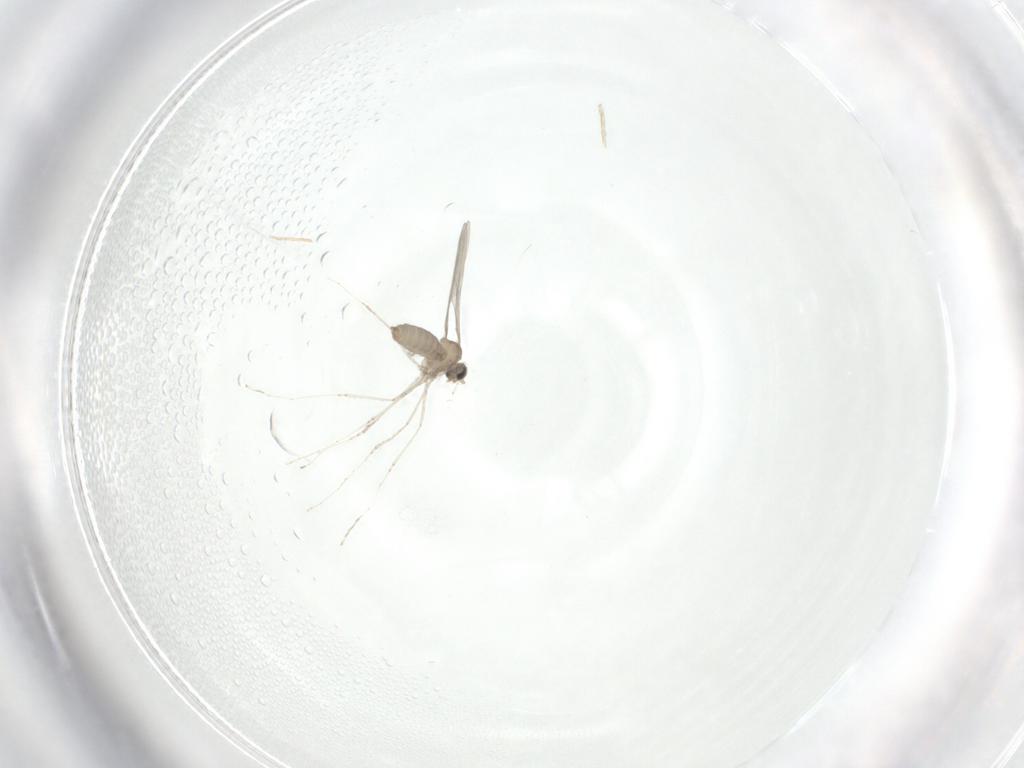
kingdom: Animalia
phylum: Arthropoda
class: Insecta
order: Diptera
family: Cecidomyiidae
